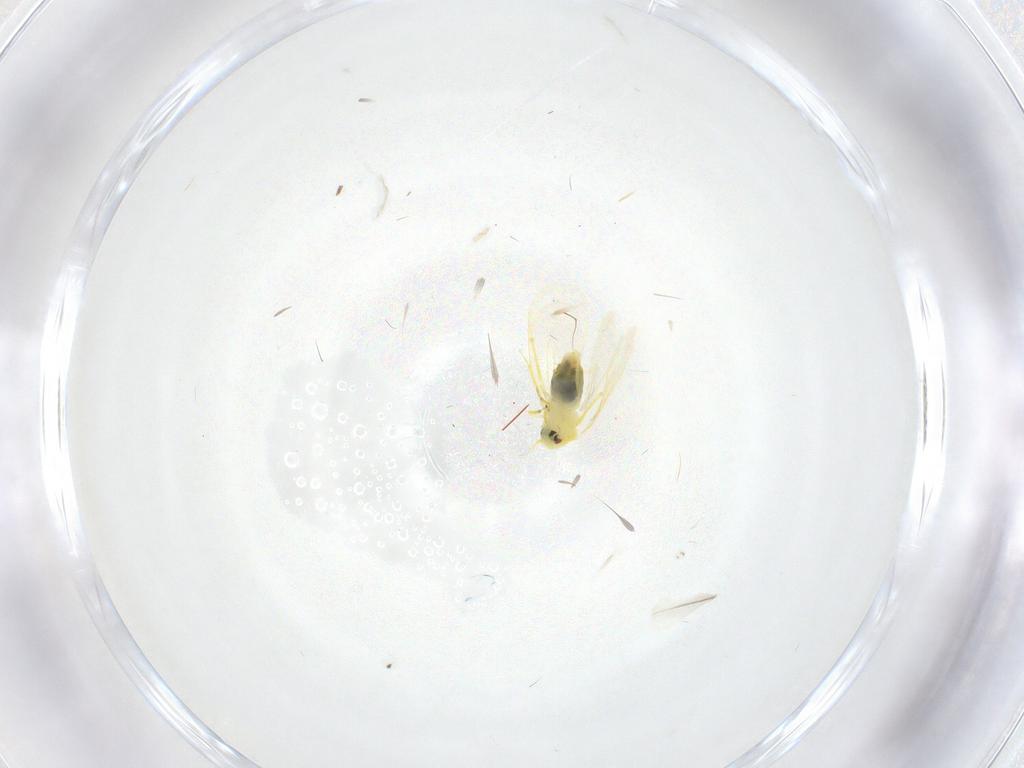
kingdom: Animalia
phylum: Arthropoda
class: Insecta
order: Hemiptera
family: Aleyrodidae
